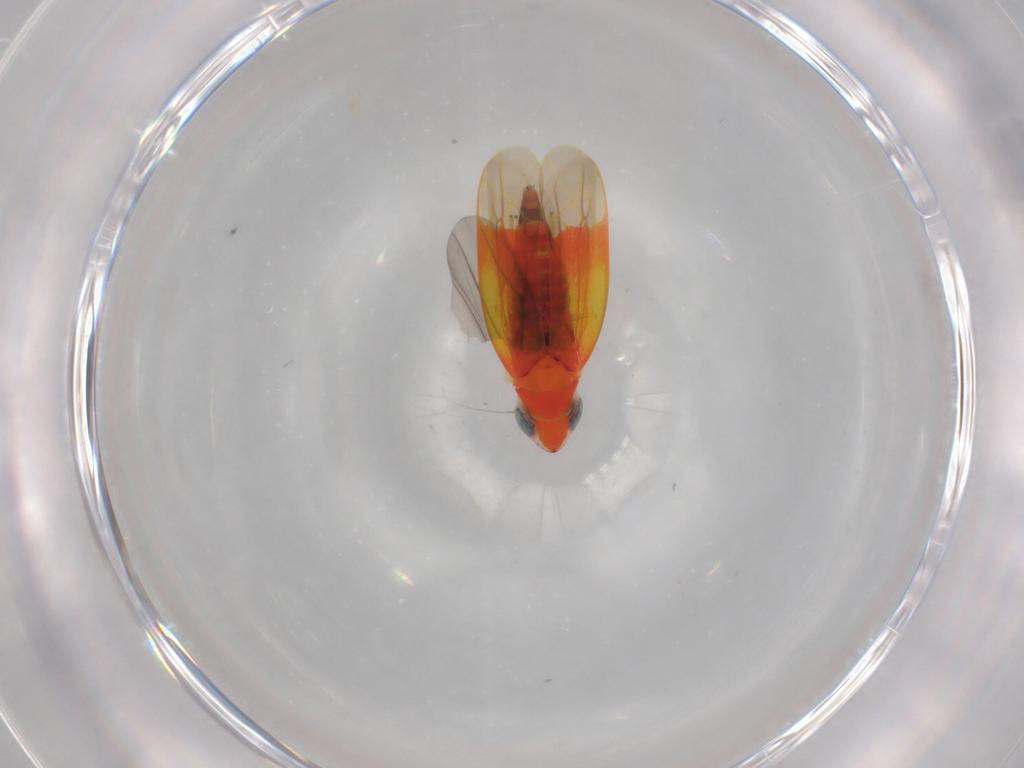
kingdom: Animalia
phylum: Arthropoda
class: Insecta
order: Hemiptera
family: Cicadellidae
